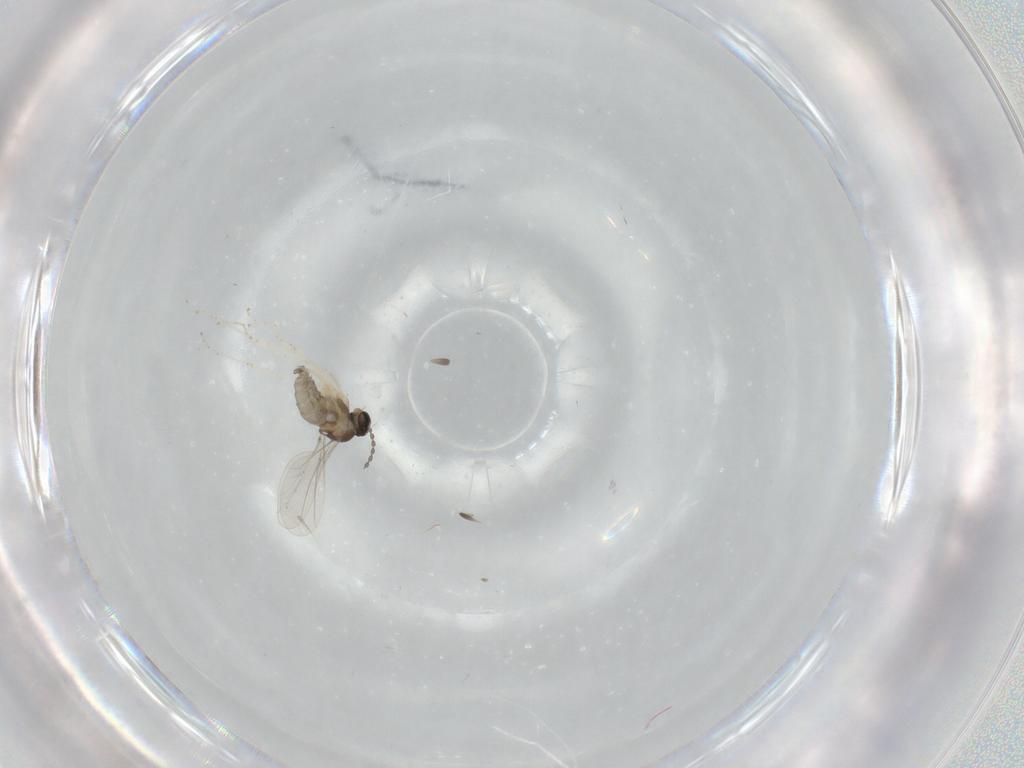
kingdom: Animalia
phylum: Arthropoda
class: Insecta
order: Diptera
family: Cecidomyiidae
